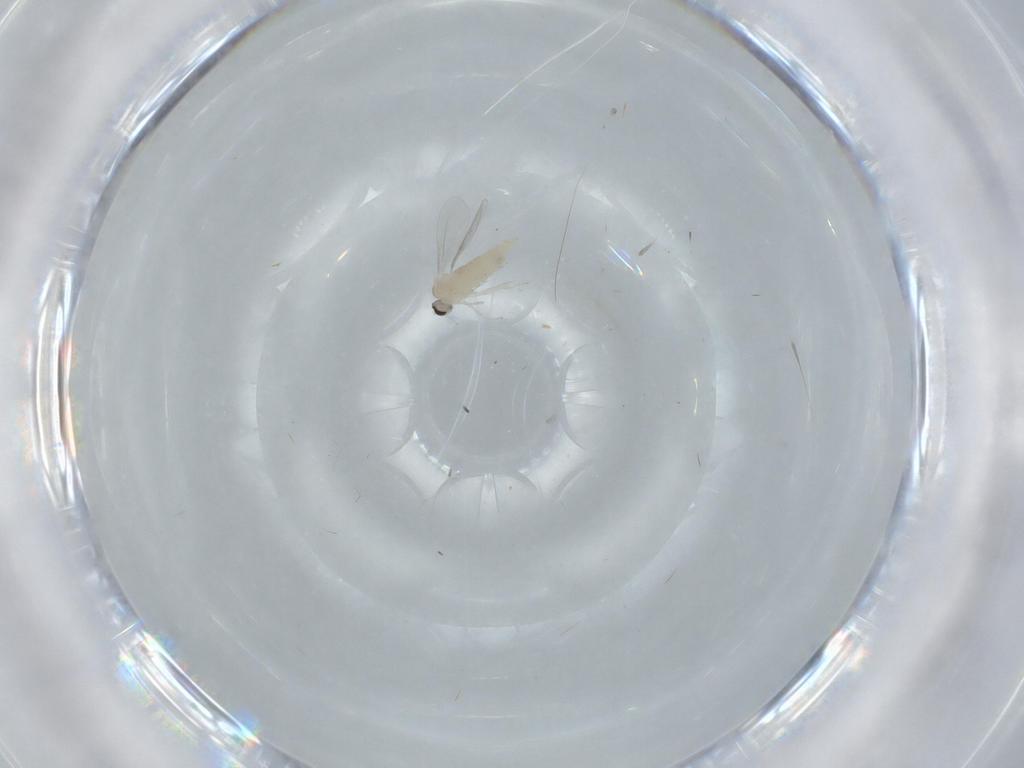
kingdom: Animalia
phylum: Arthropoda
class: Insecta
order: Diptera
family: Cecidomyiidae
